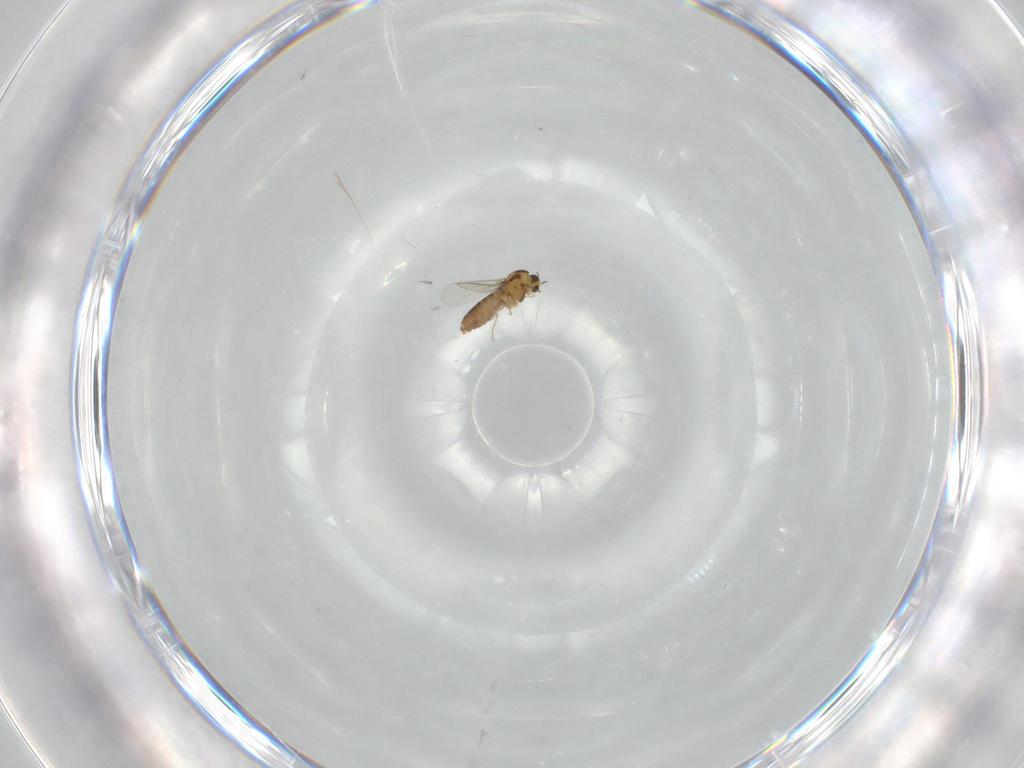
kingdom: Animalia
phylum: Arthropoda
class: Insecta
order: Diptera
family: Chironomidae
